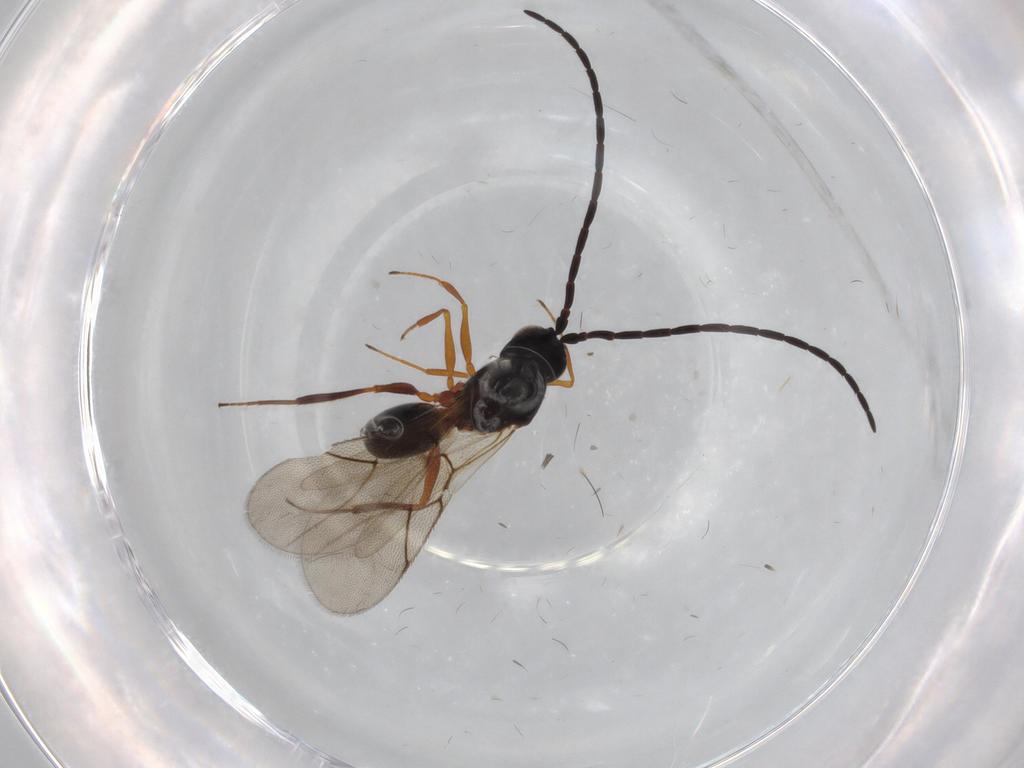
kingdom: Animalia
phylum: Arthropoda
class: Insecta
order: Hymenoptera
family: Figitidae
